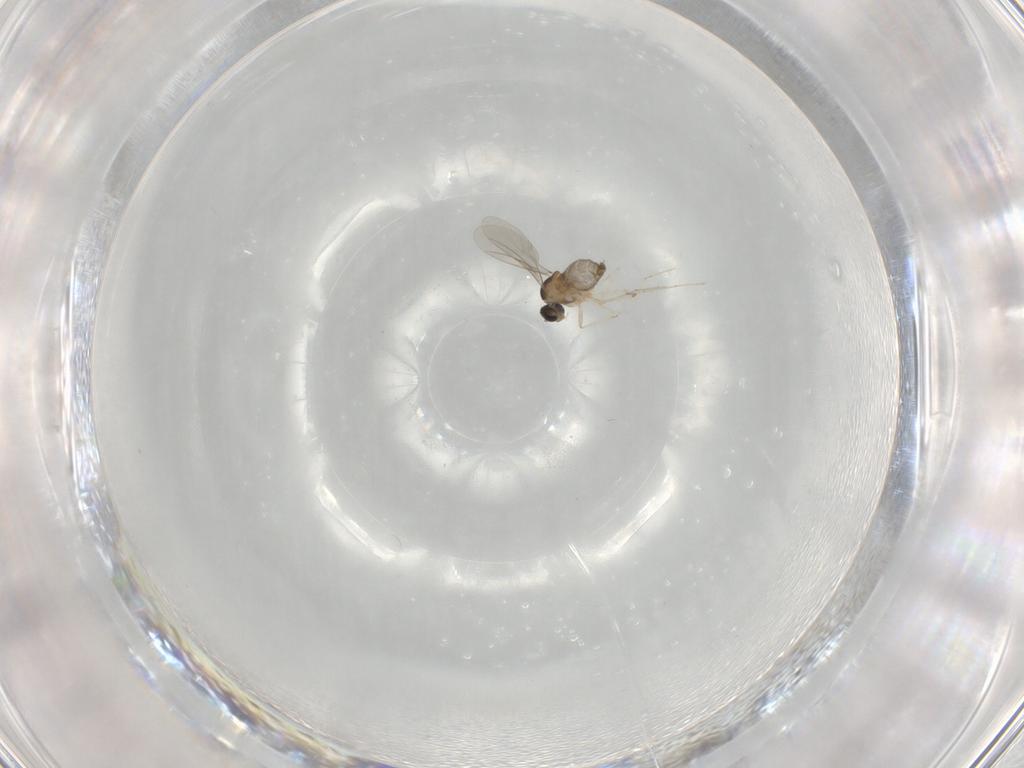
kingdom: Animalia
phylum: Arthropoda
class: Insecta
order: Diptera
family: Cecidomyiidae
